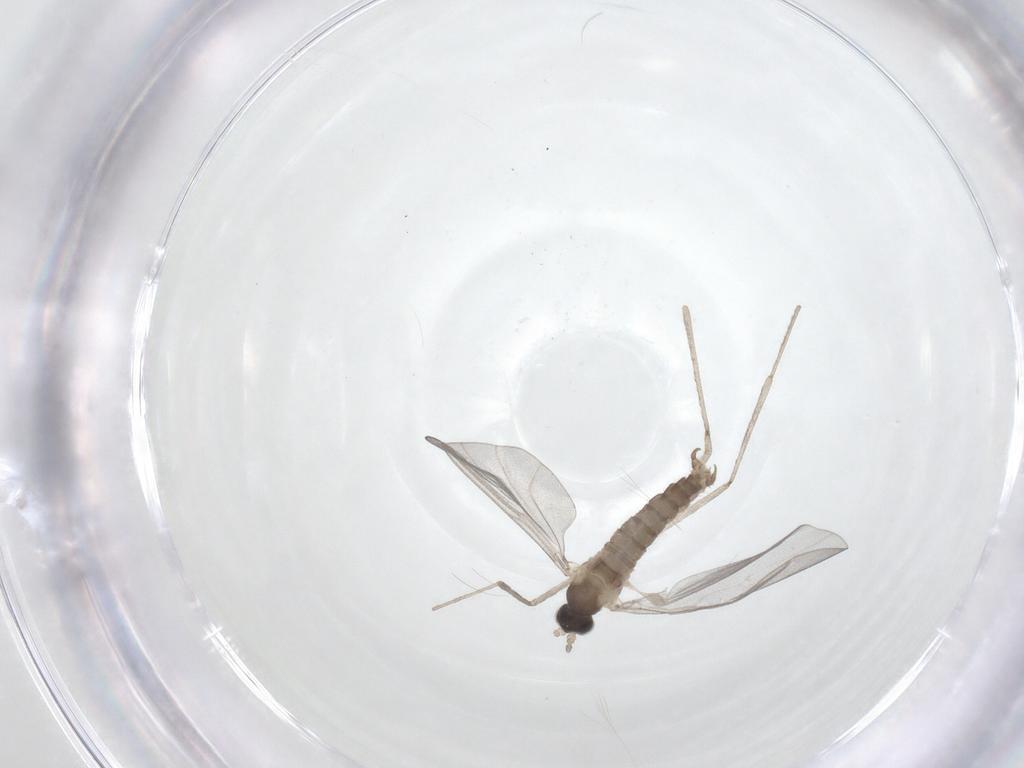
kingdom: Animalia
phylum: Arthropoda
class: Insecta
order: Diptera
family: Cecidomyiidae
